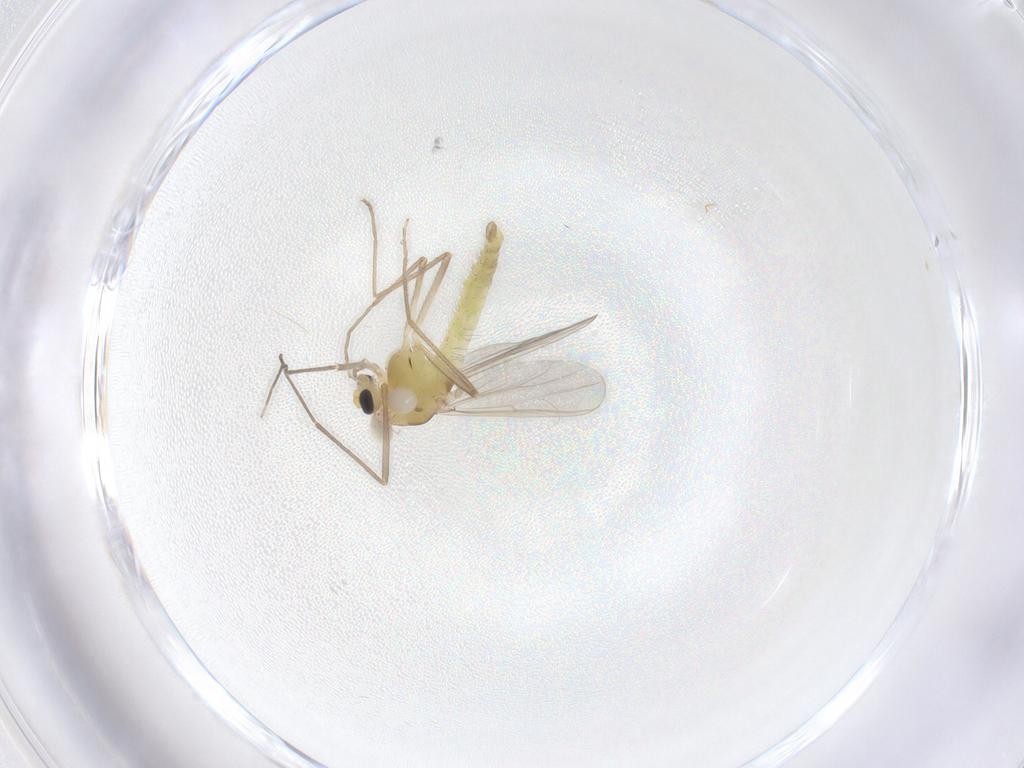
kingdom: Animalia
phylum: Arthropoda
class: Insecta
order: Diptera
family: Chironomidae
